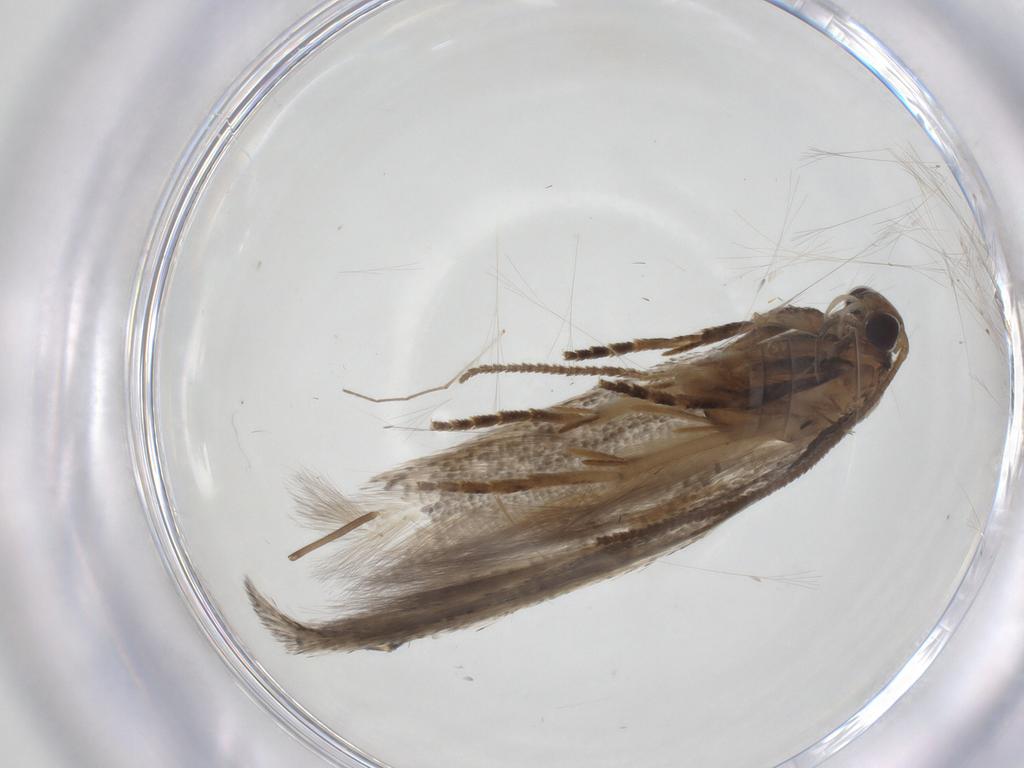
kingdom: Animalia
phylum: Arthropoda
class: Insecta
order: Lepidoptera
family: Elachistidae
